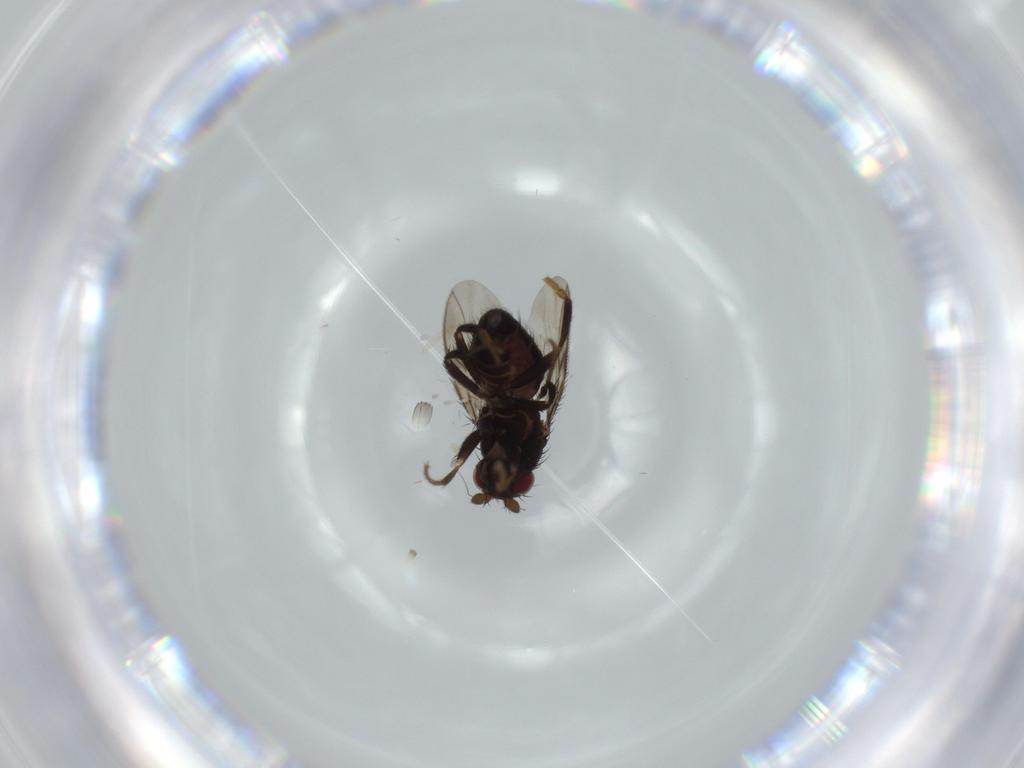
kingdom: Animalia
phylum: Arthropoda
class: Insecta
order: Diptera
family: Sphaeroceridae
